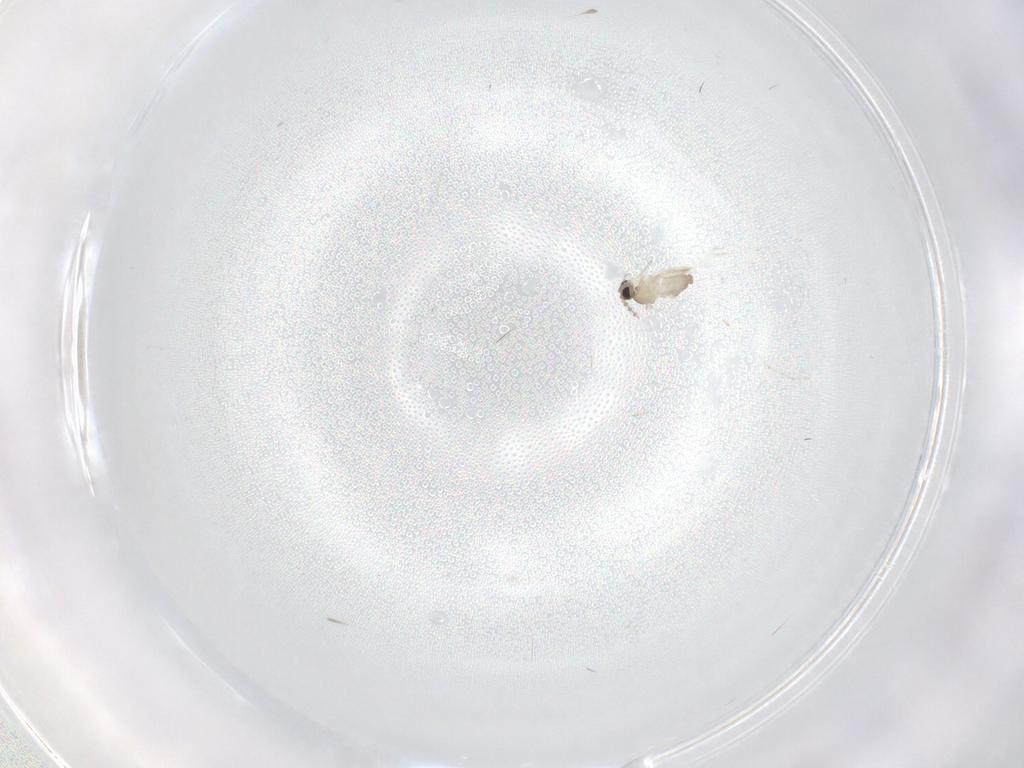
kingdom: Animalia
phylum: Arthropoda
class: Insecta
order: Diptera
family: Cecidomyiidae
